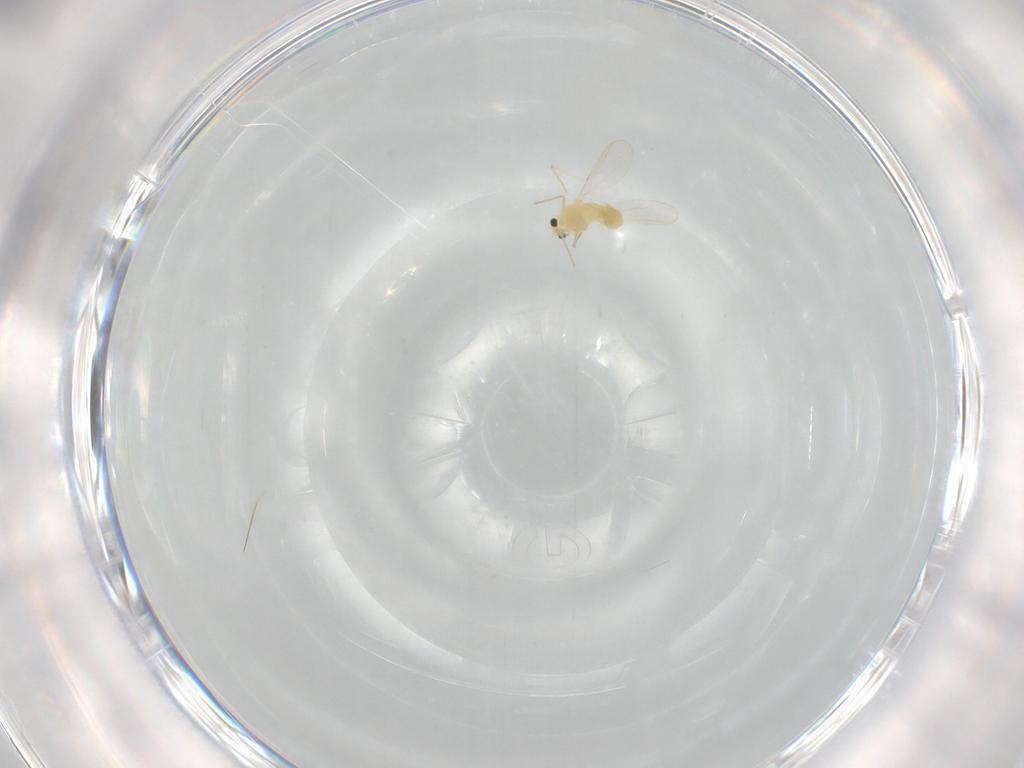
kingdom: Animalia
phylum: Arthropoda
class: Insecta
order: Diptera
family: Chironomidae
